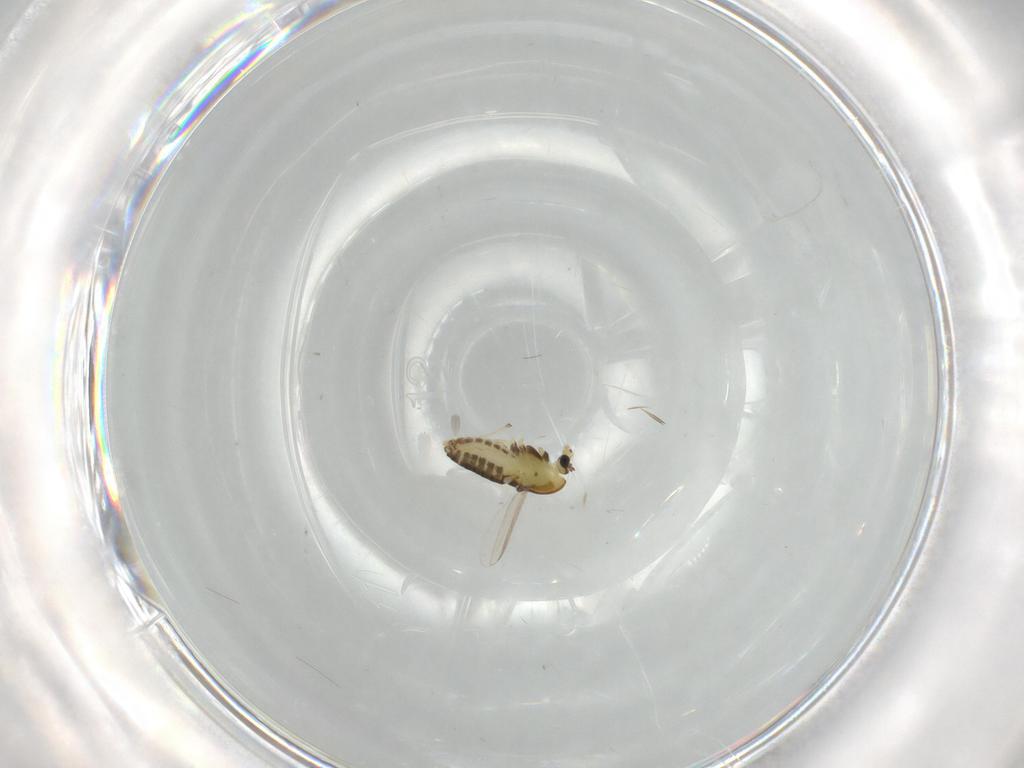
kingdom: Animalia
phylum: Arthropoda
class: Insecta
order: Diptera
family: Chironomidae
